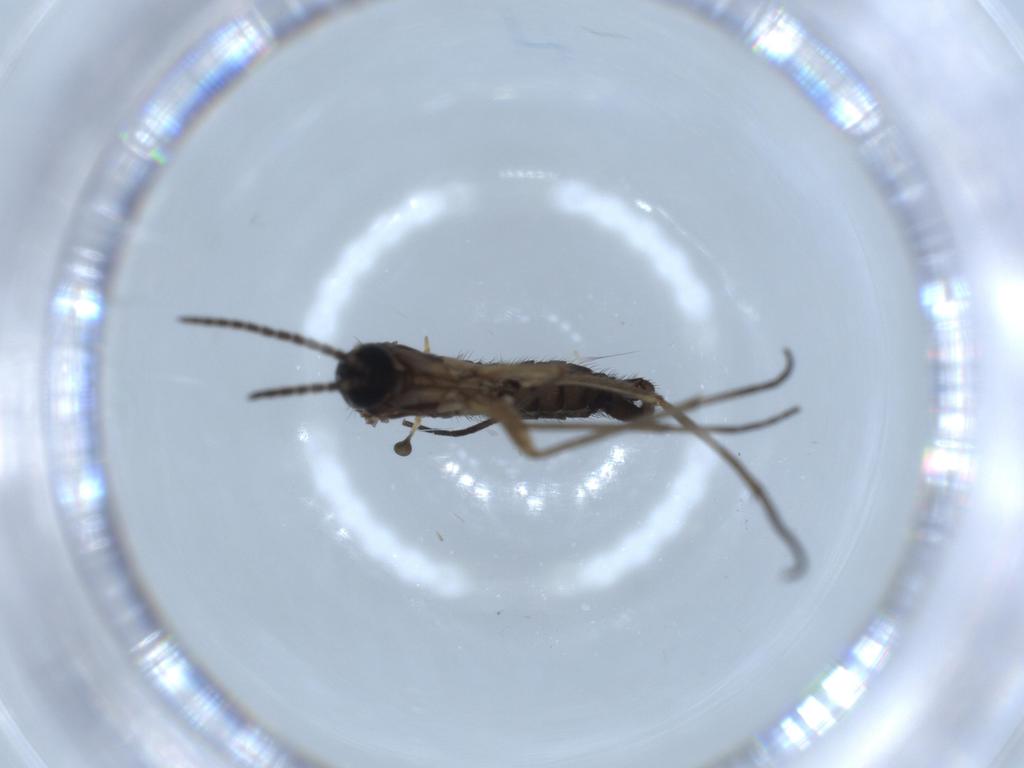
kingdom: Animalia
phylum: Arthropoda
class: Insecta
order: Diptera
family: Sciaridae
